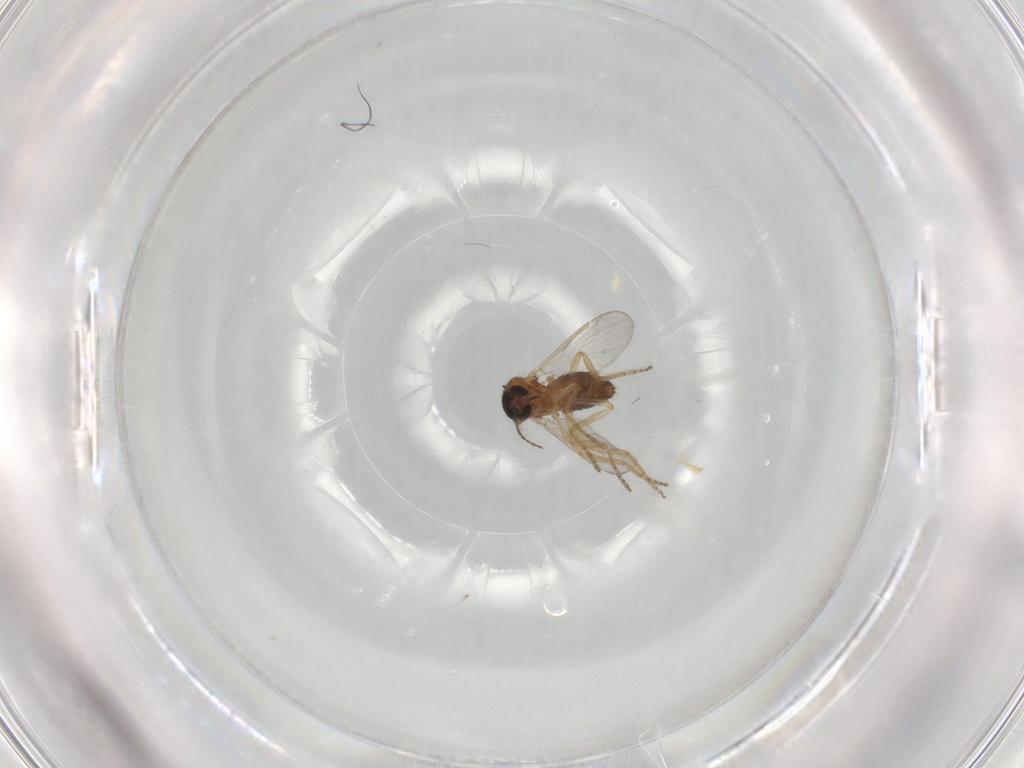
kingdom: Animalia
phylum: Arthropoda
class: Insecta
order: Diptera
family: Ceratopogonidae
